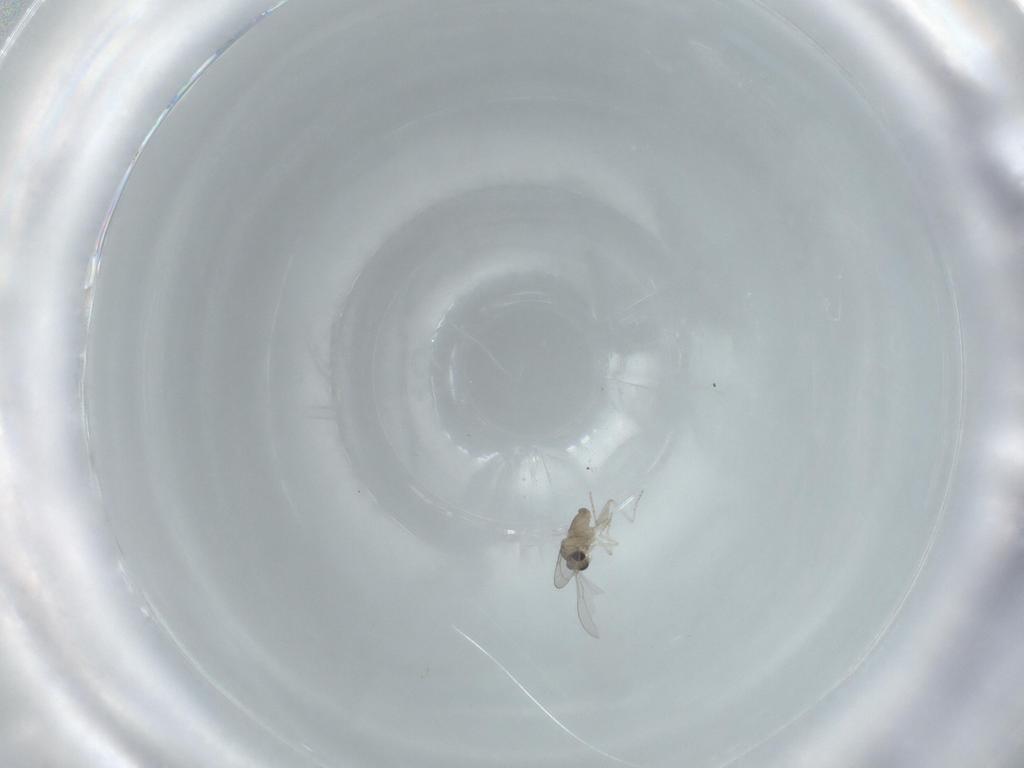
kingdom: Animalia
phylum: Arthropoda
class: Insecta
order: Diptera
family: Cecidomyiidae
